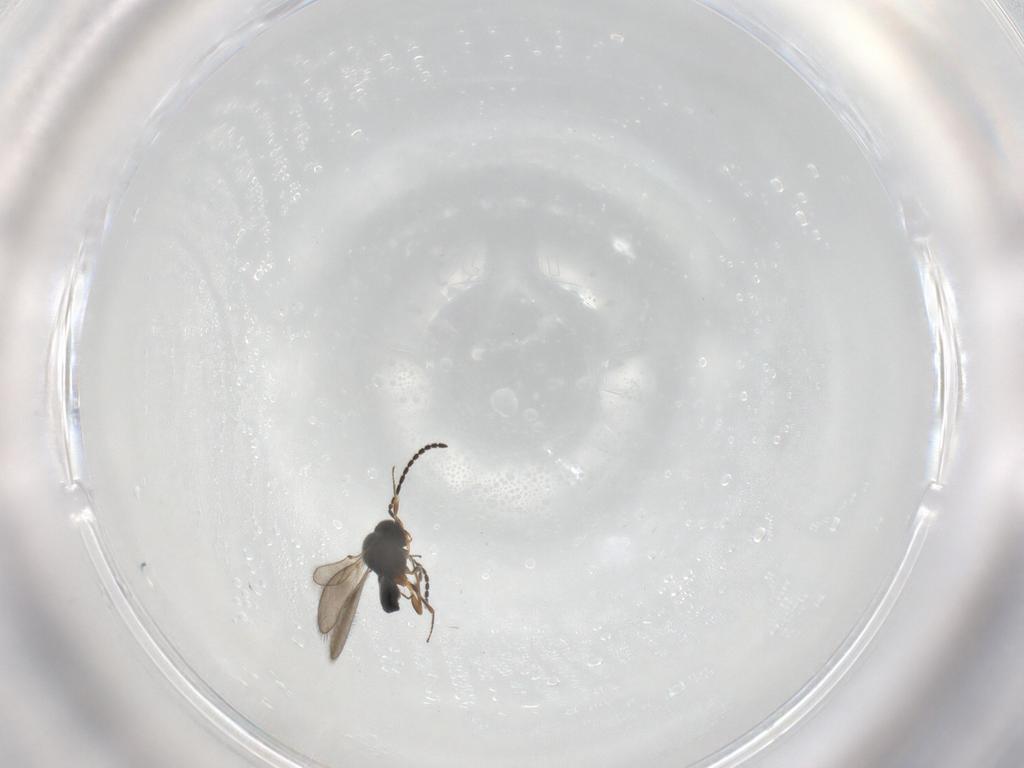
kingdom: Animalia
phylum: Arthropoda
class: Insecta
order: Hymenoptera
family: Scelionidae
